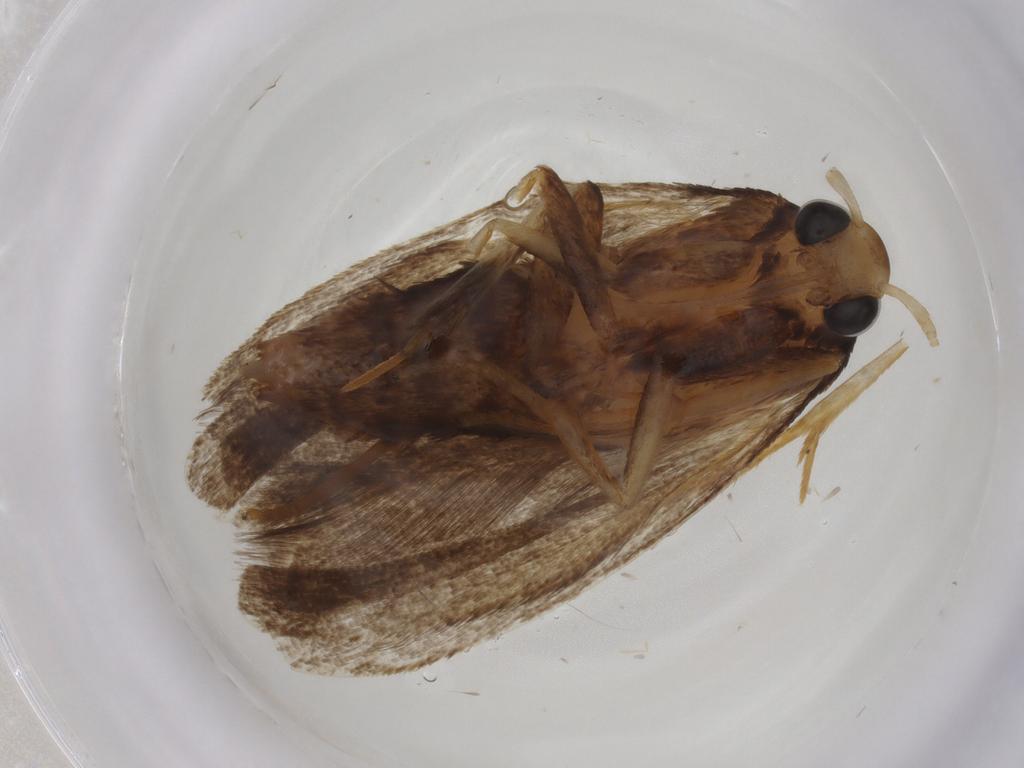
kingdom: Animalia
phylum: Arthropoda
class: Insecta
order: Lepidoptera
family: Lecithoceridae
